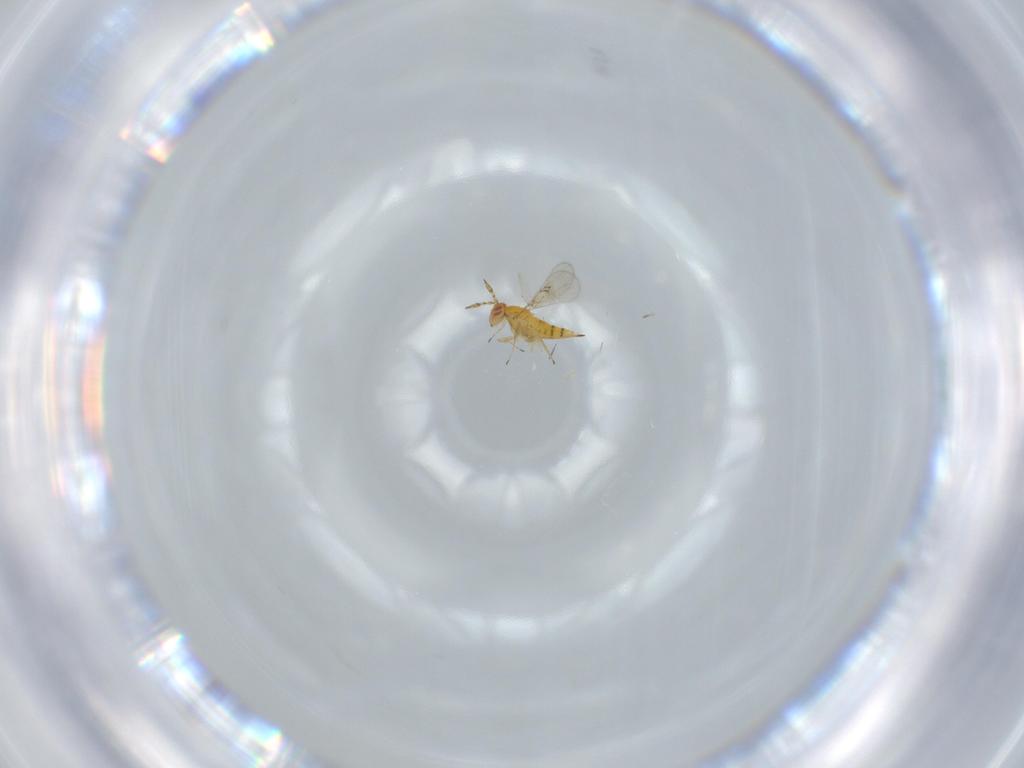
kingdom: Animalia
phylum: Arthropoda
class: Insecta
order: Hymenoptera
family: Trichogrammatidae
